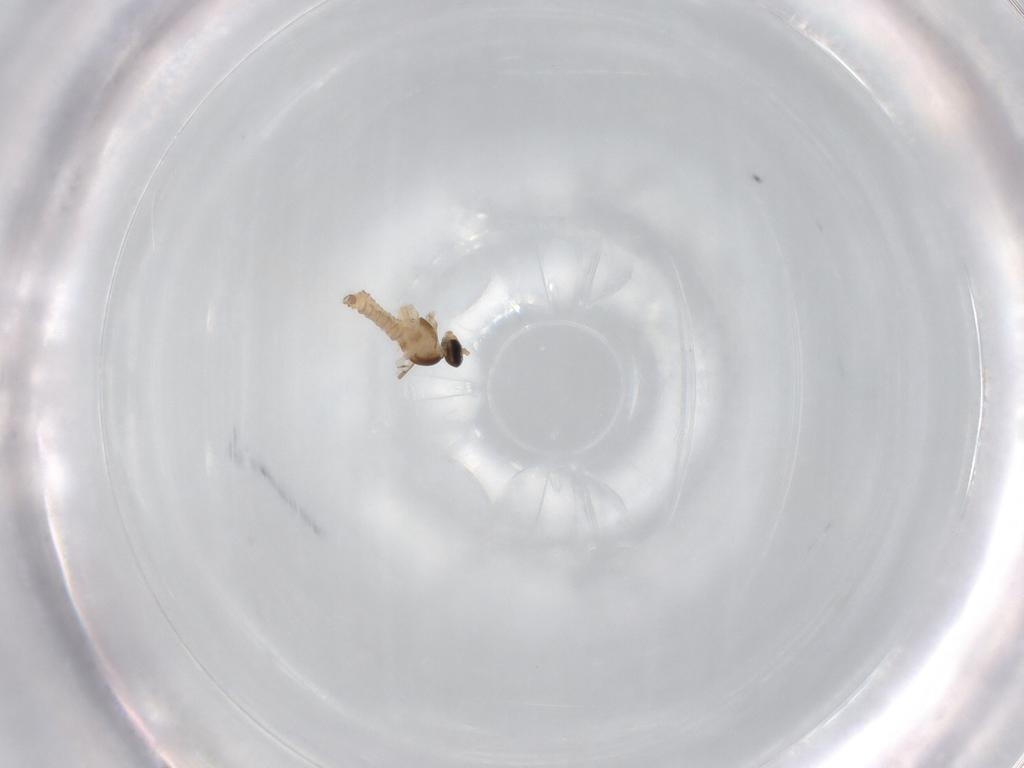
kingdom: Animalia
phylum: Arthropoda
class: Insecta
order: Diptera
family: Cecidomyiidae
